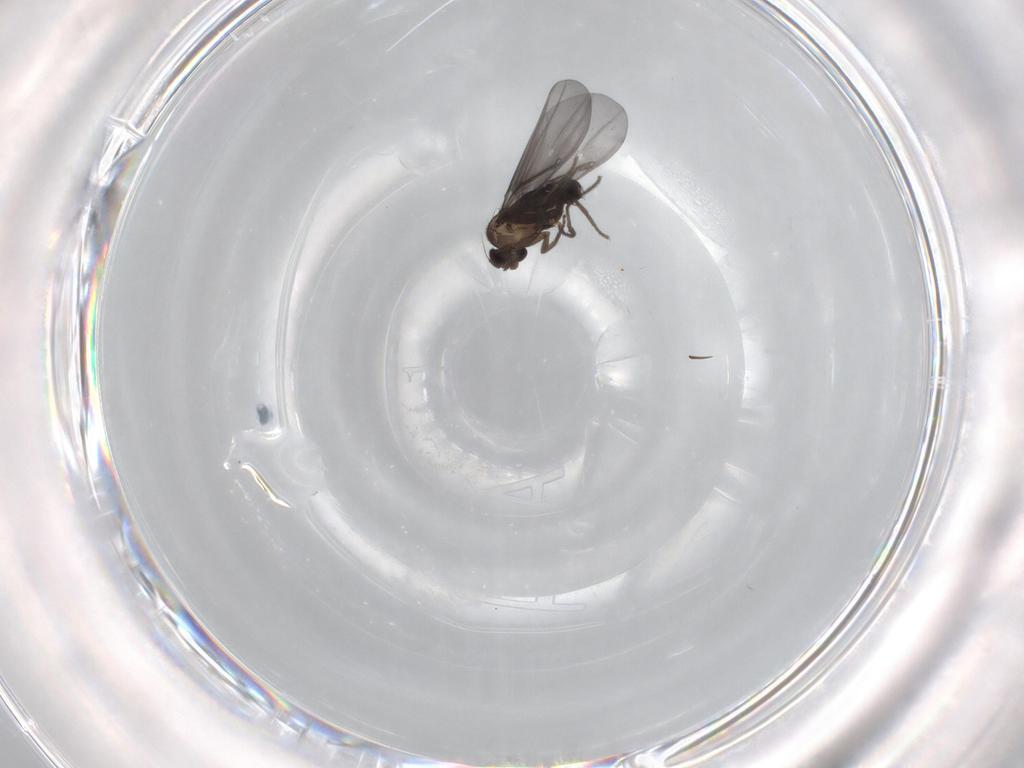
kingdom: Animalia
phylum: Arthropoda
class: Insecta
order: Diptera
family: Phoridae
